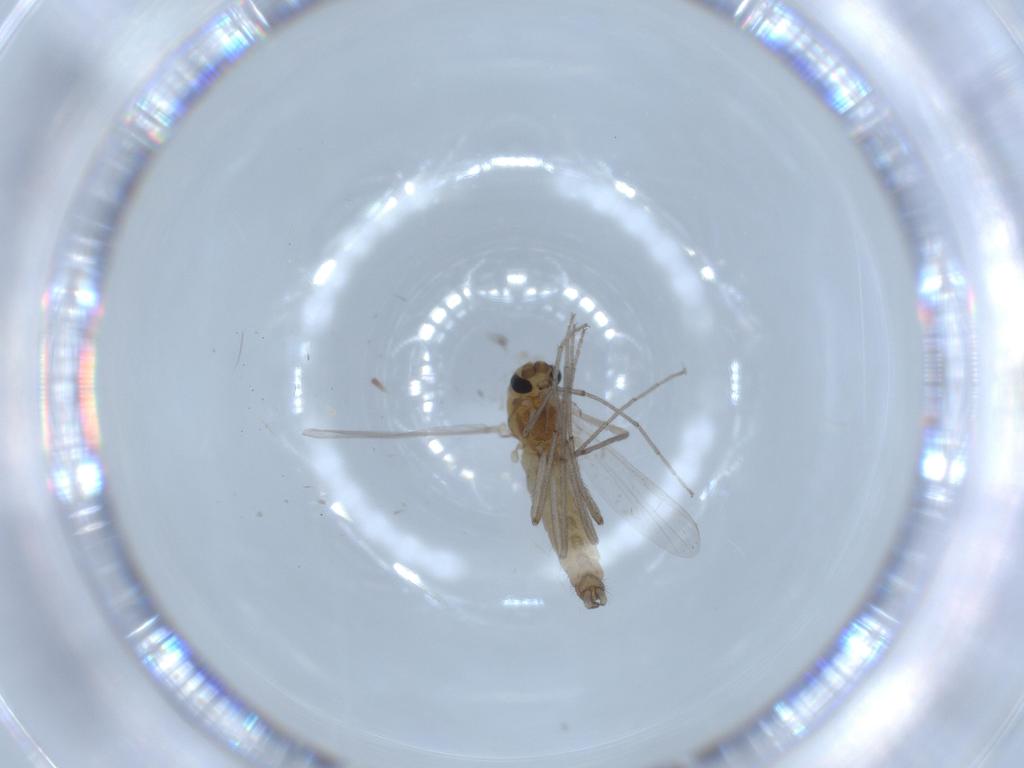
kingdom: Animalia
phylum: Arthropoda
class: Insecta
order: Diptera
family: Chironomidae
